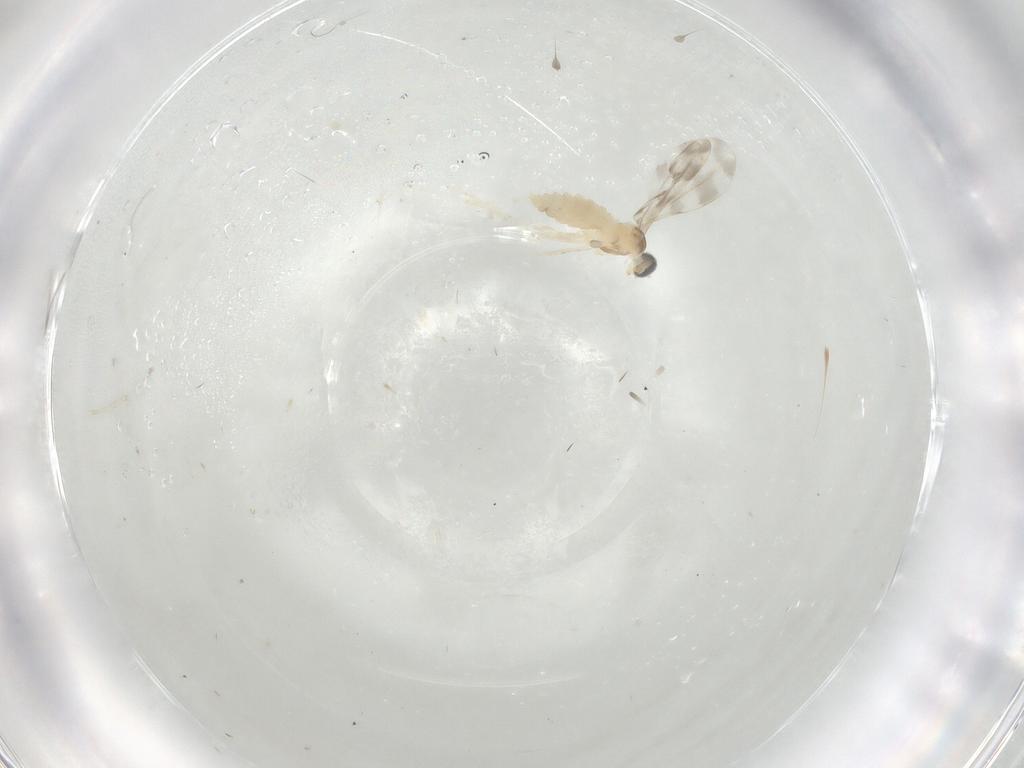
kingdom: Animalia
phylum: Arthropoda
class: Insecta
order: Diptera
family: Cecidomyiidae
